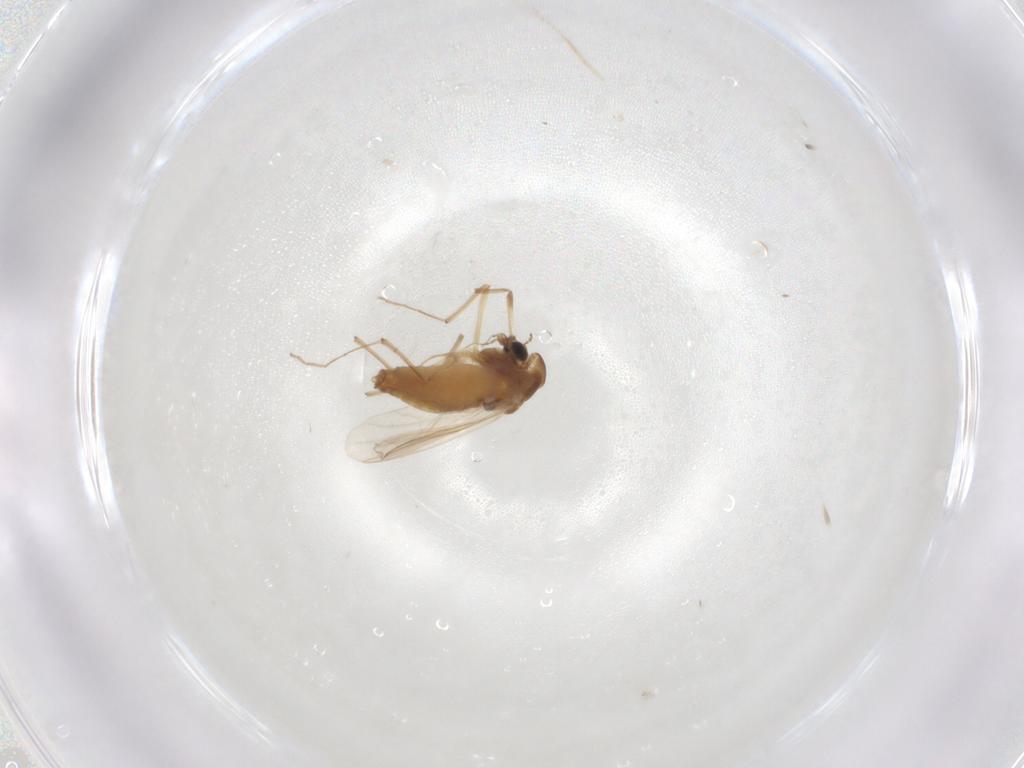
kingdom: Animalia
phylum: Arthropoda
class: Insecta
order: Diptera
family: Chironomidae
